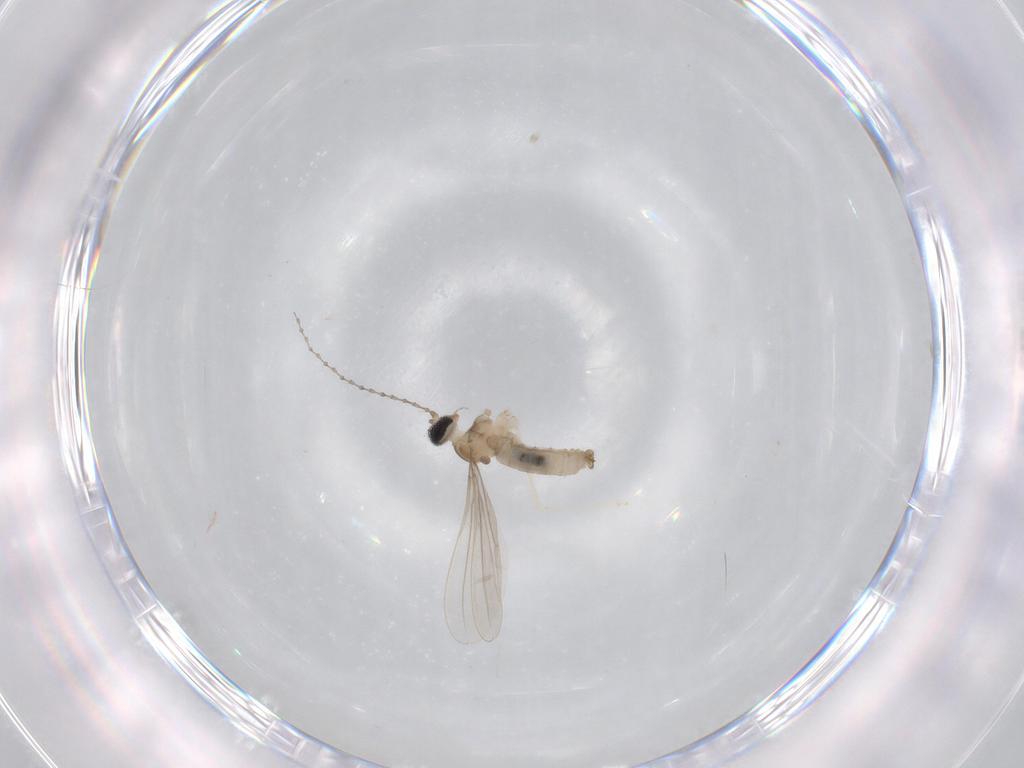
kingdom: Animalia
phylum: Arthropoda
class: Insecta
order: Diptera
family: Cecidomyiidae
